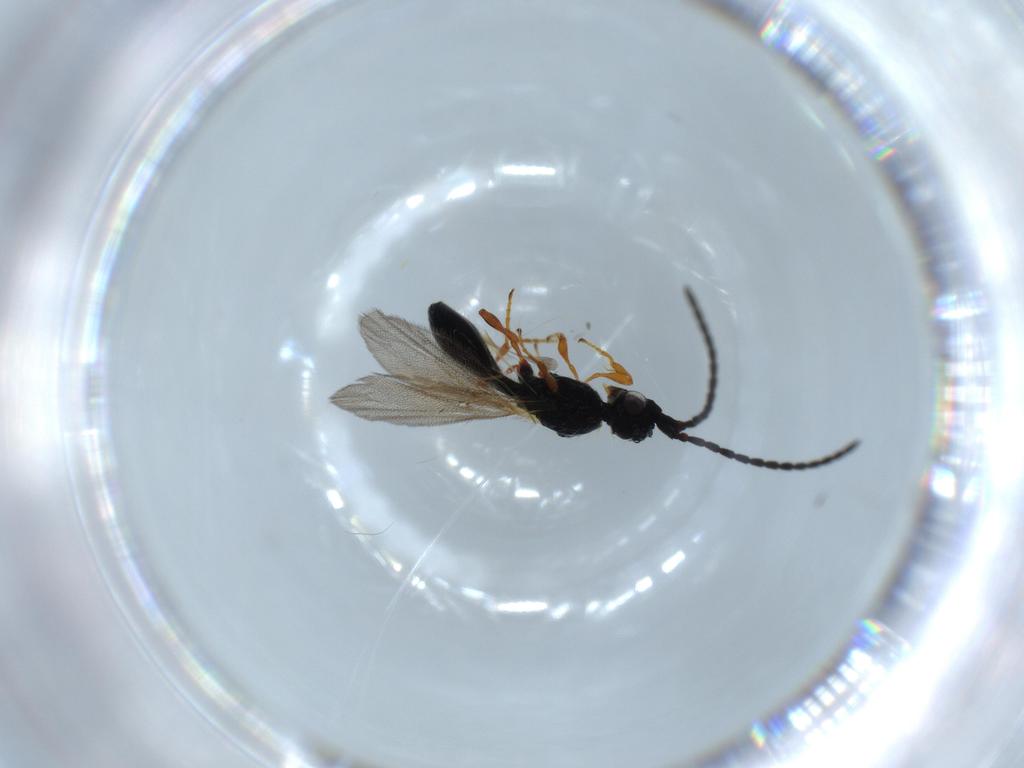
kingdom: Animalia
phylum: Arthropoda
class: Insecta
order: Hymenoptera
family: Diapriidae
